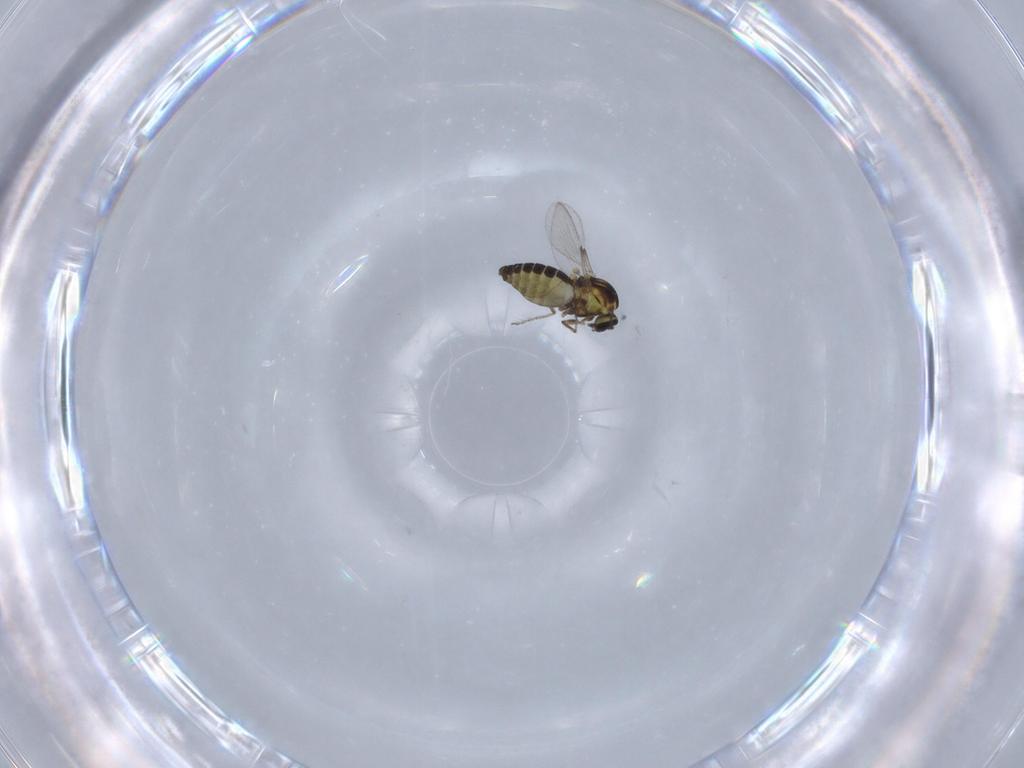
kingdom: Animalia
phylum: Arthropoda
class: Insecta
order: Diptera
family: Ceratopogonidae
